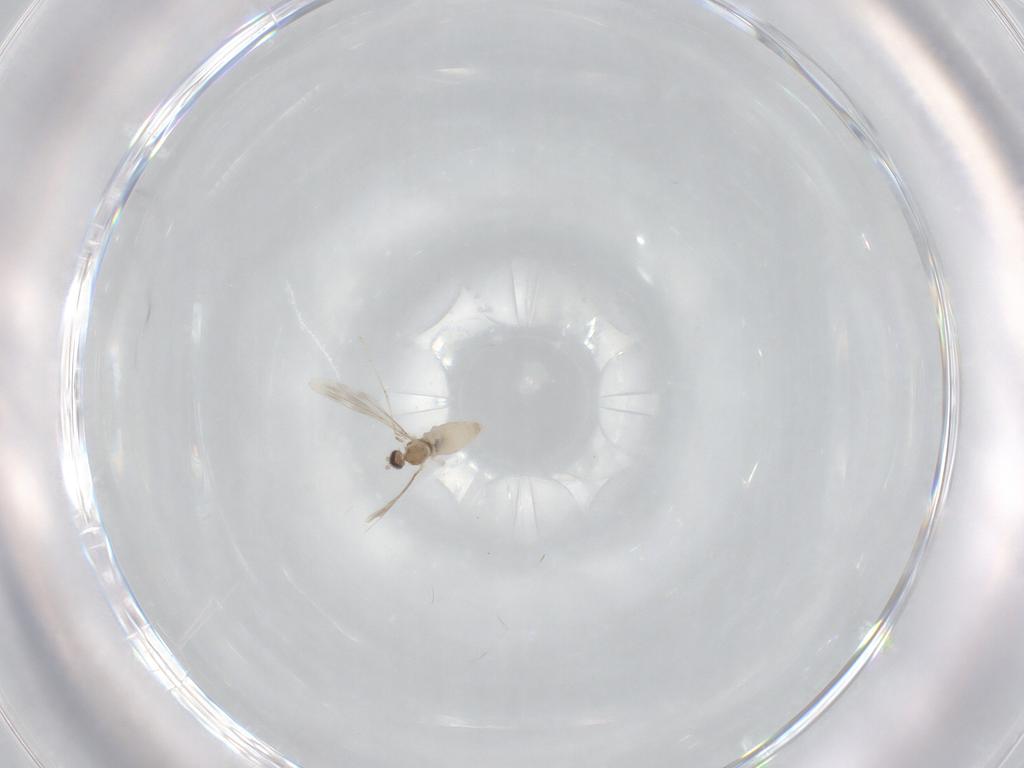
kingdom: Animalia
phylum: Arthropoda
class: Insecta
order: Diptera
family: Cecidomyiidae
